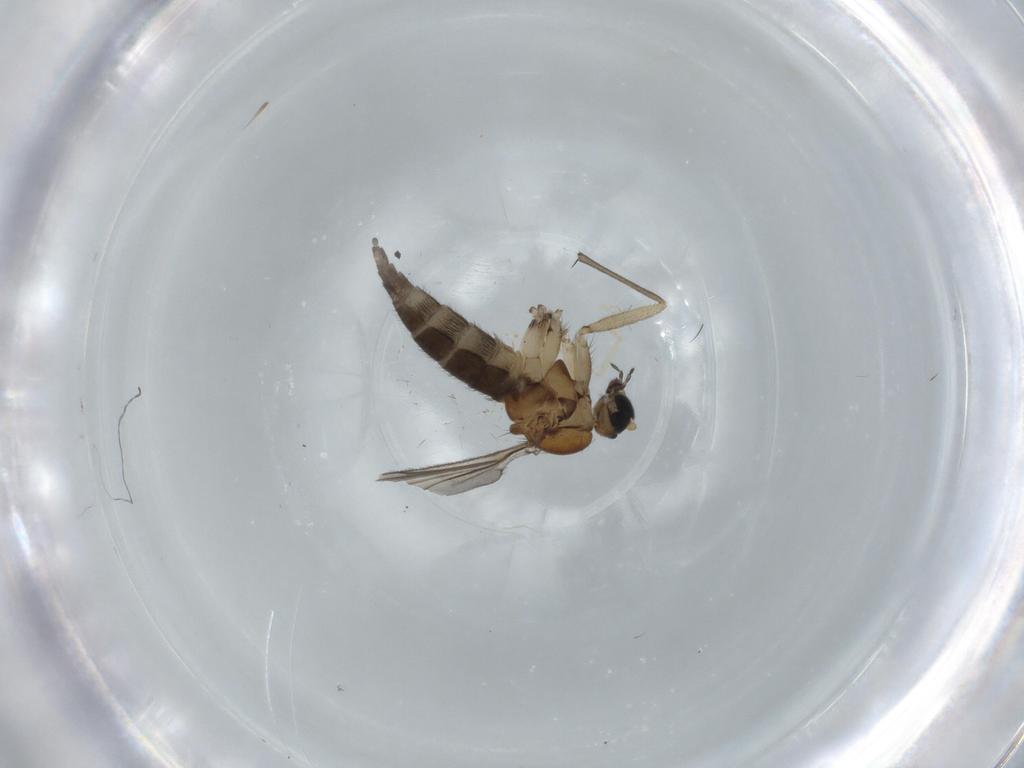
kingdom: Animalia
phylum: Arthropoda
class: Insecta
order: Diptera
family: Sciaridae
